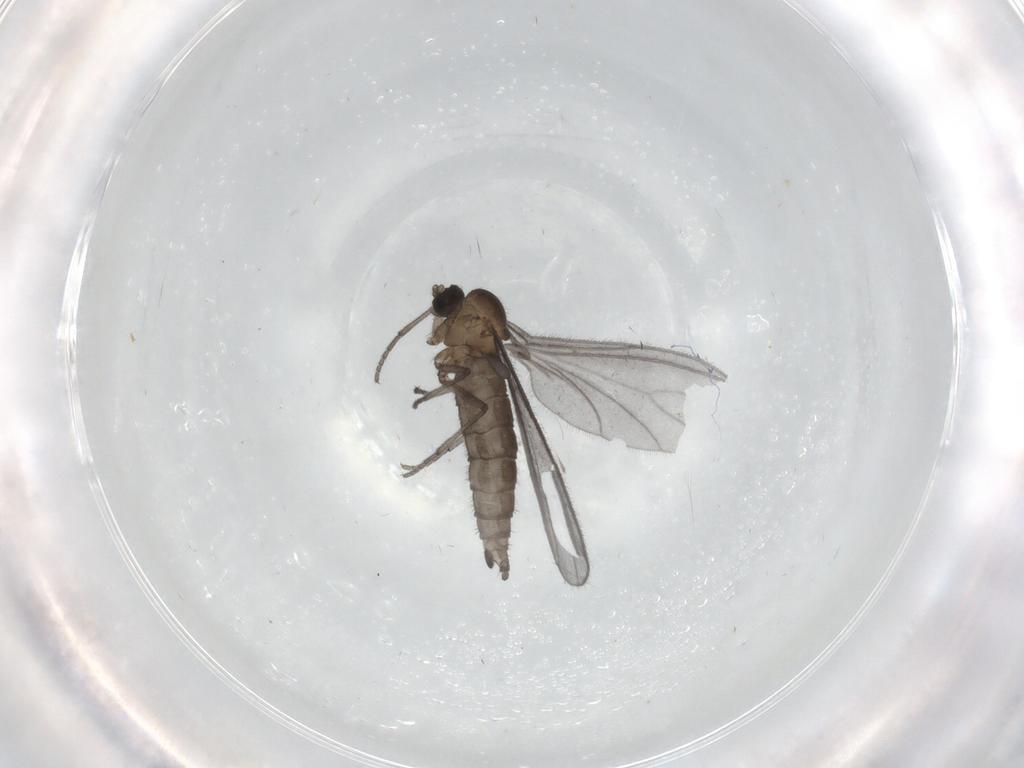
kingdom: Animalia
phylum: Arthropoda
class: Insecta
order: Diptera
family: Sciaridae
